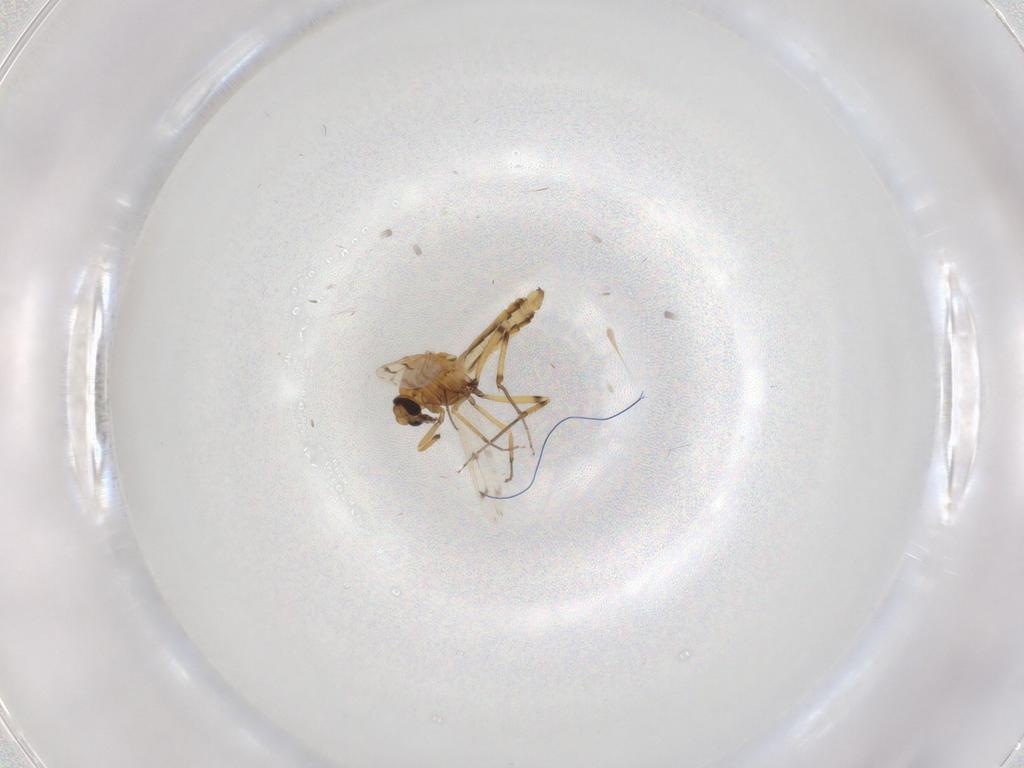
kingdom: Animalia
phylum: Arthropoda
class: Insecta
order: Diptera
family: Ceratopogonidae
